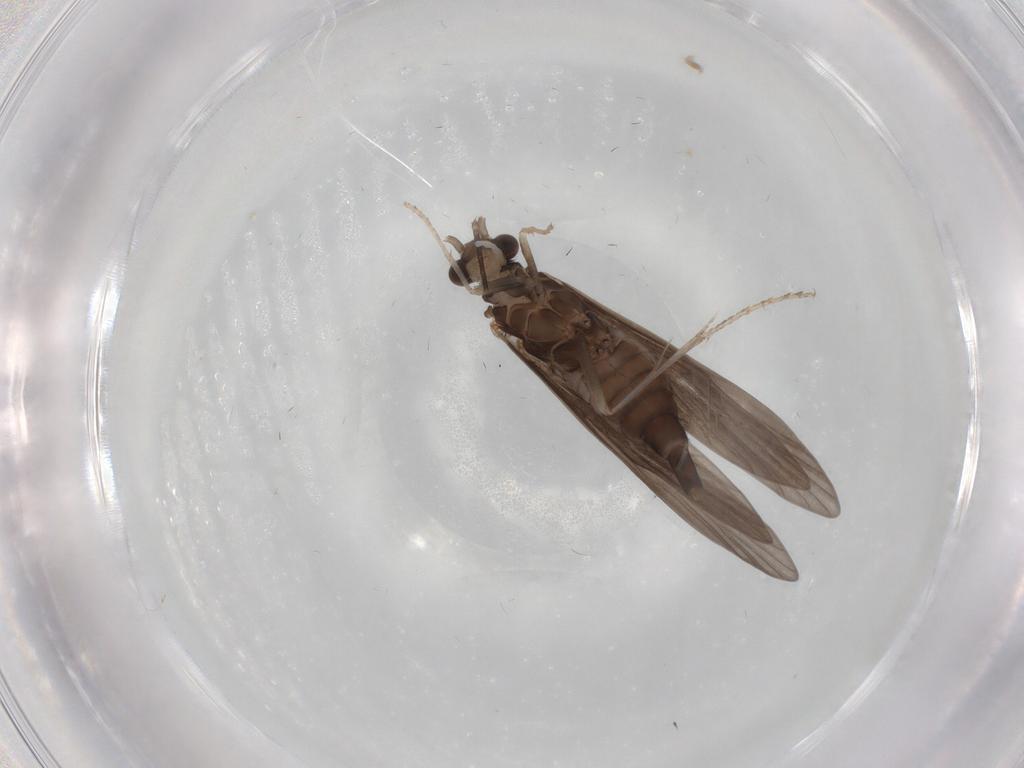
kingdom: Animalia
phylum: Arthropoda
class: Insecta
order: Trichoptera
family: Xiphocentronidae
